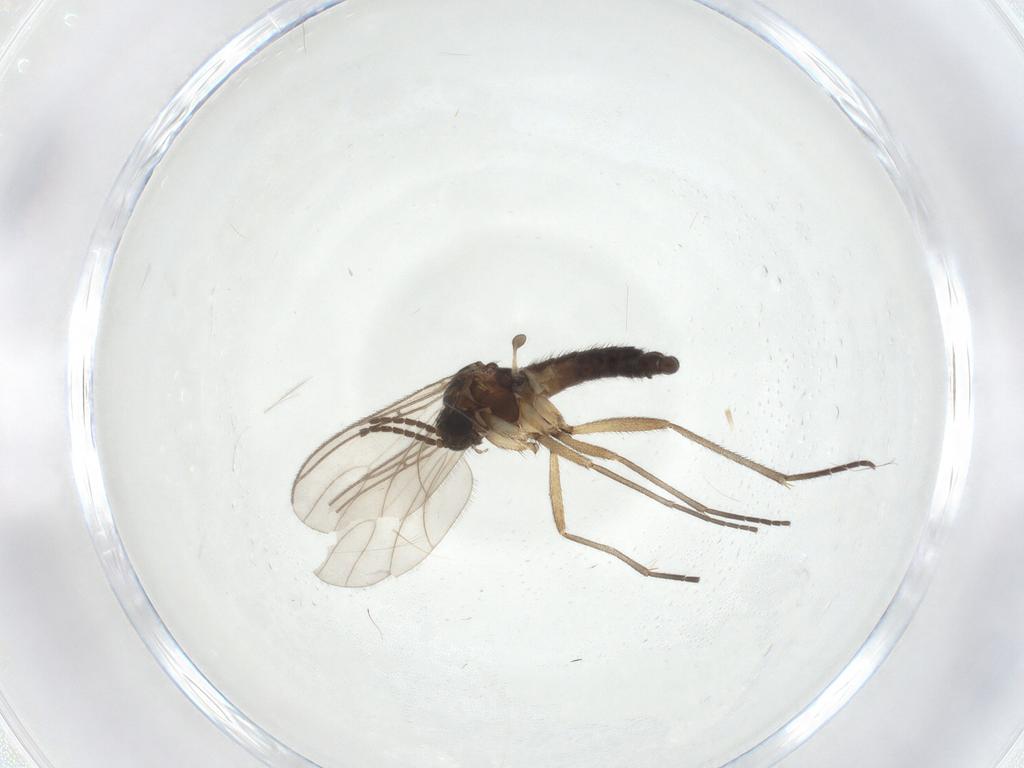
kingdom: Animalia
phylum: Arthropoda
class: Insecta
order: Diptera
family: Sciaridae
